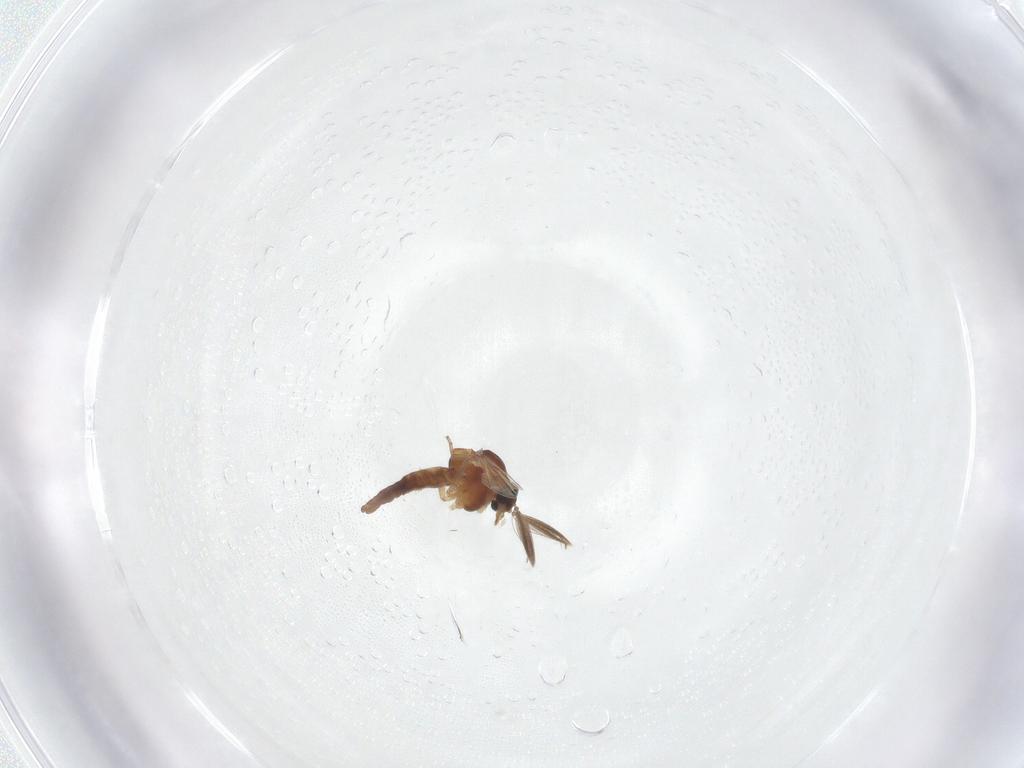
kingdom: Animalia
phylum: Arthropoda
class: Insecta
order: Diptera
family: Ceratopogonidae
